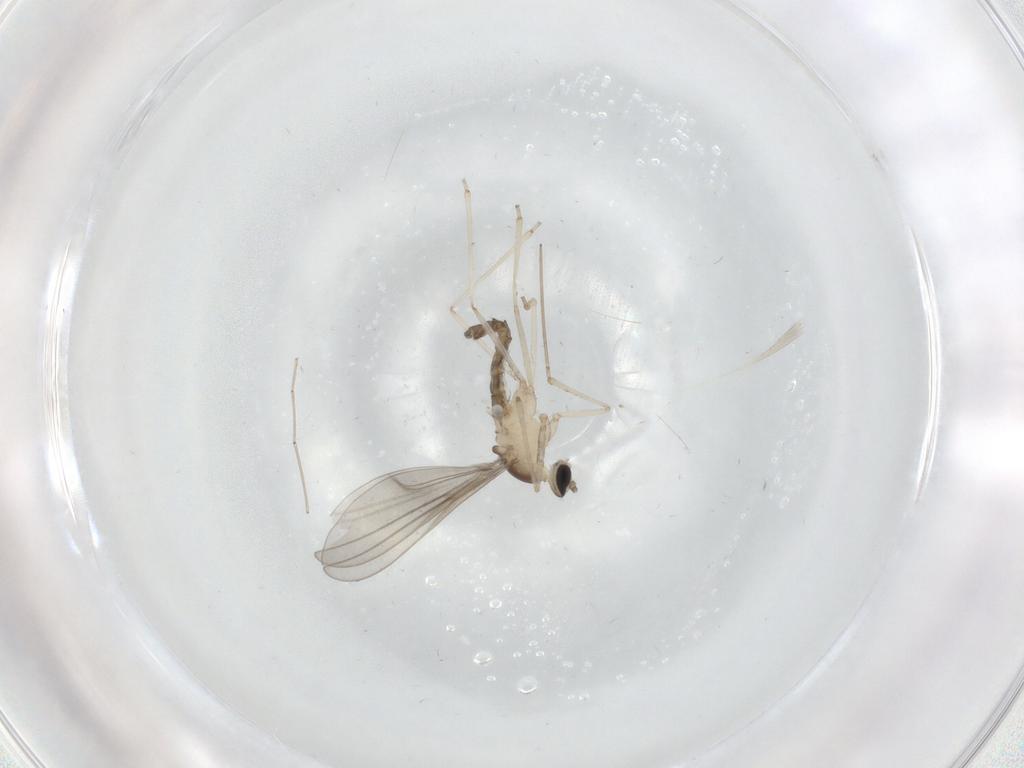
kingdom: Animalia
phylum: Arthropoda
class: Insecta
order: Diptera
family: Cecidomyiidae
